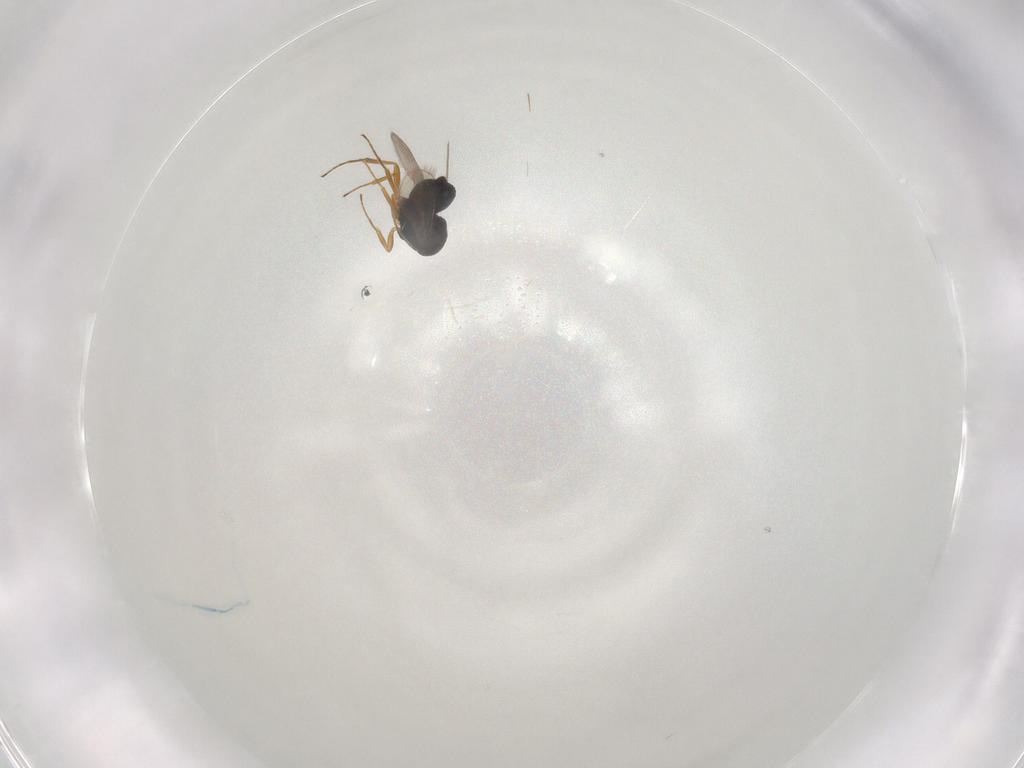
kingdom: Animalia
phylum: Arthropoda
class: Insecta
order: Hymenoptera
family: Scelionidae
